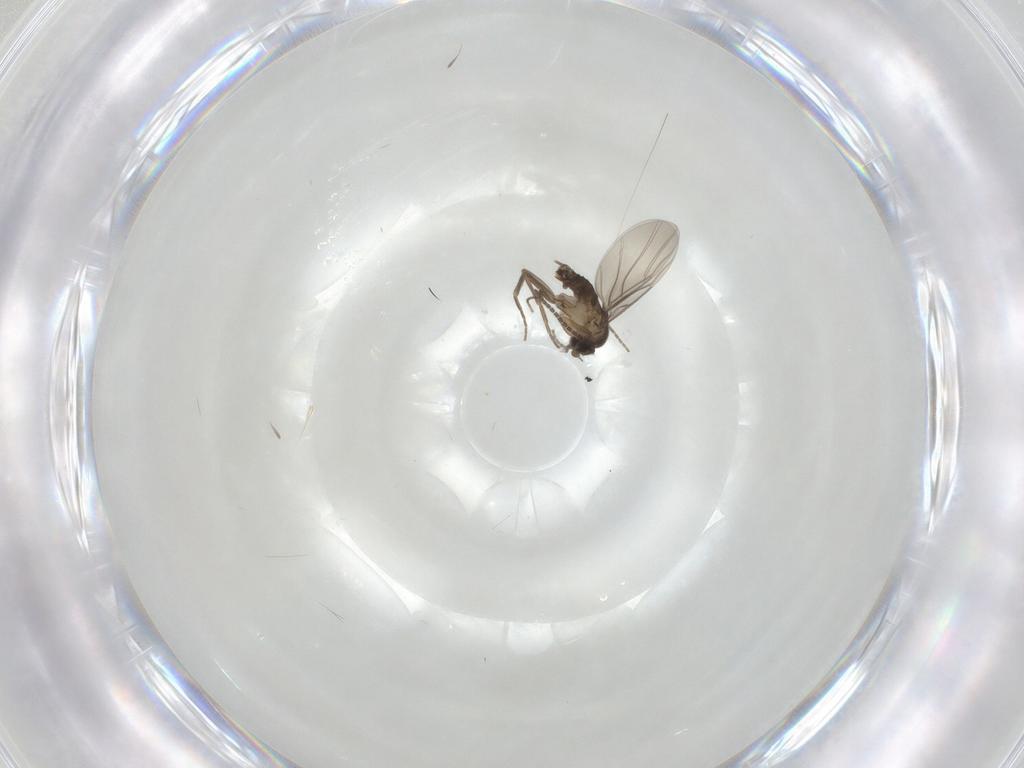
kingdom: Animalia
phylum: Arthropoda
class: Insecta
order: Diptera
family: Sciaridae
